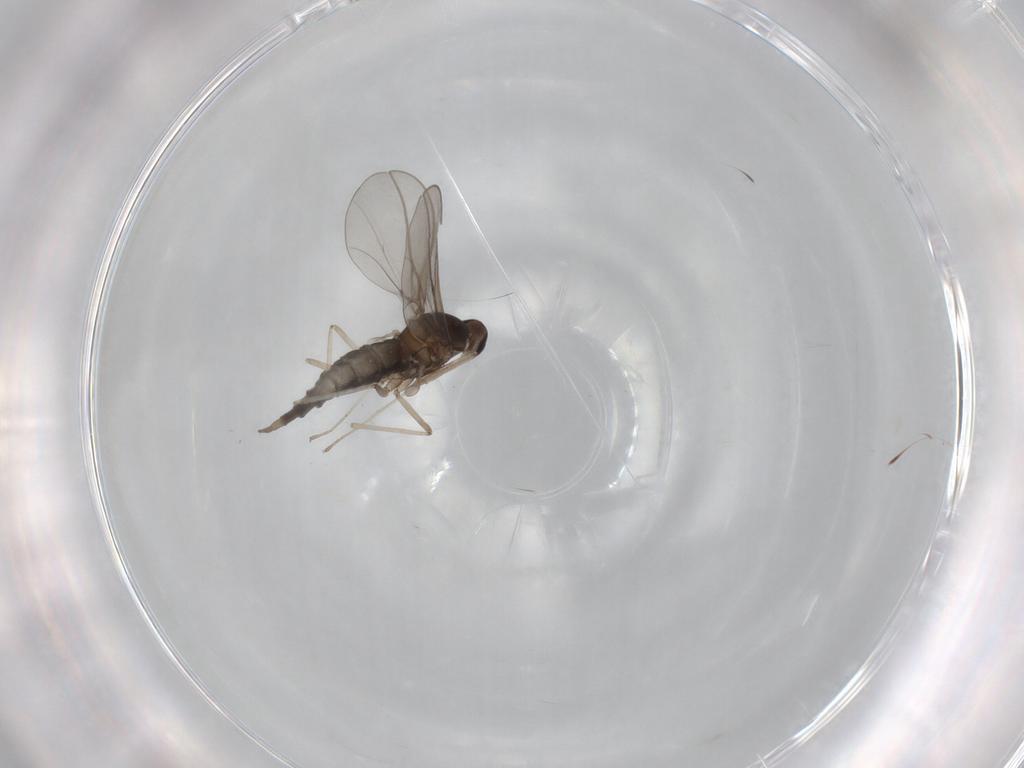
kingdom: Animalia
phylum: Arthropoda
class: Insecta
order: Diptera
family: Cecidomyiidae
